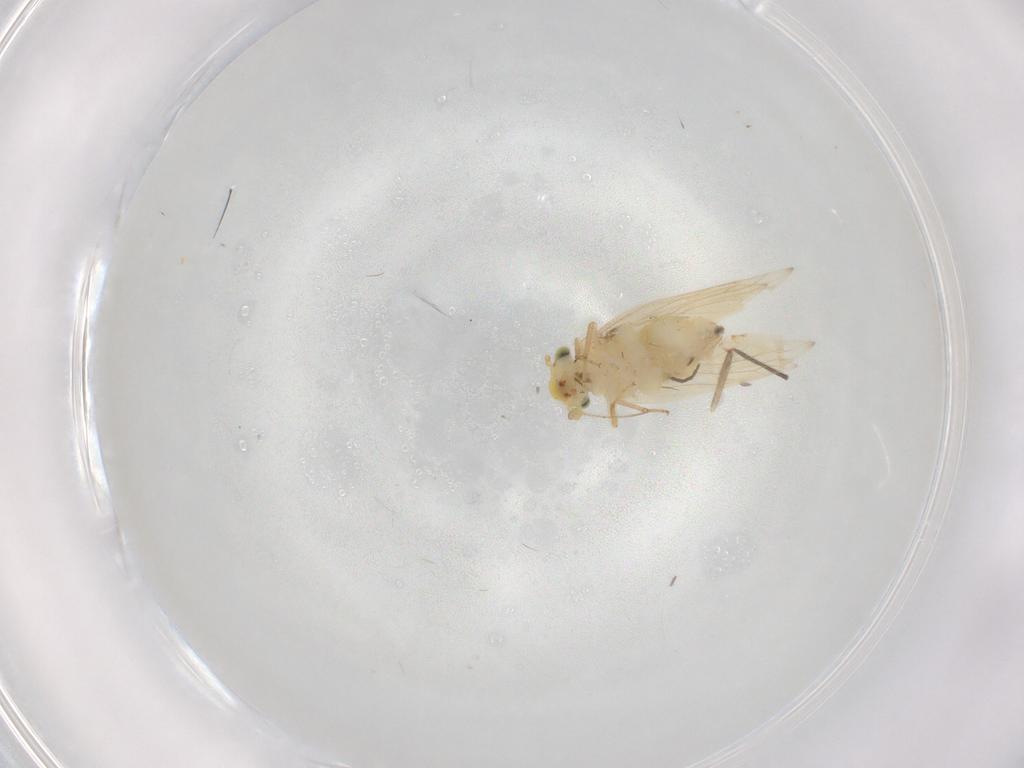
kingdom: Animalia
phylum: Arthropoda
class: Insecta
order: Psocodea
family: Lepidopsocidae
